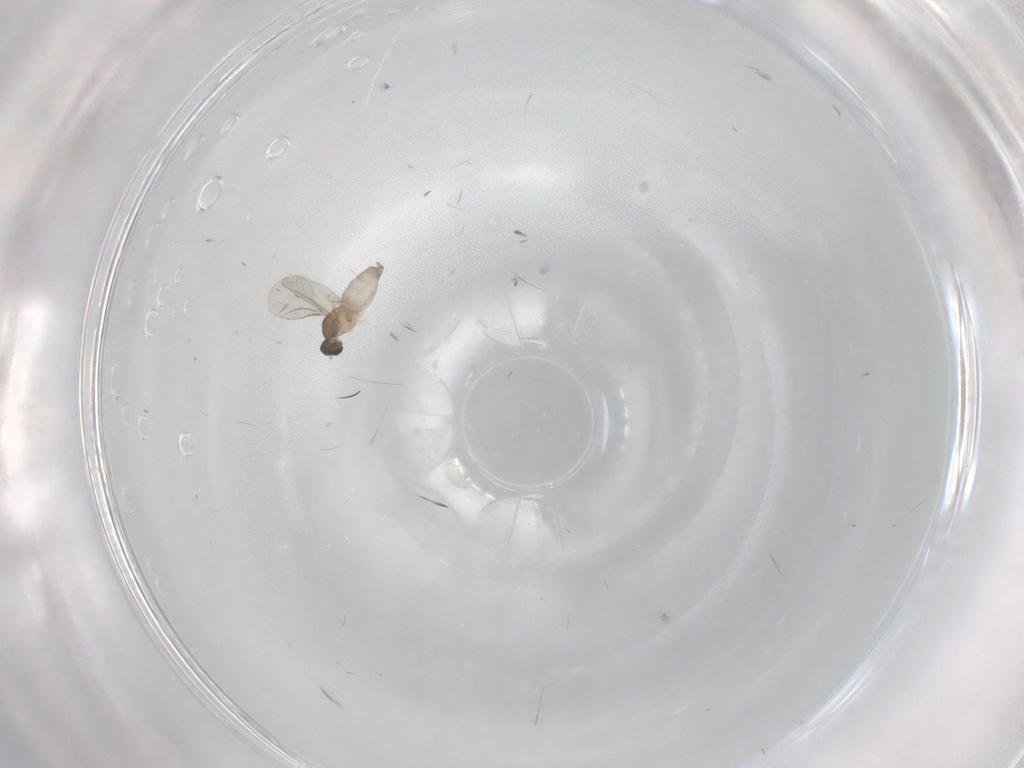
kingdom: Animalia
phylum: Arthropoda
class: Insecta
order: Diptera
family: Cecidomyiidae
